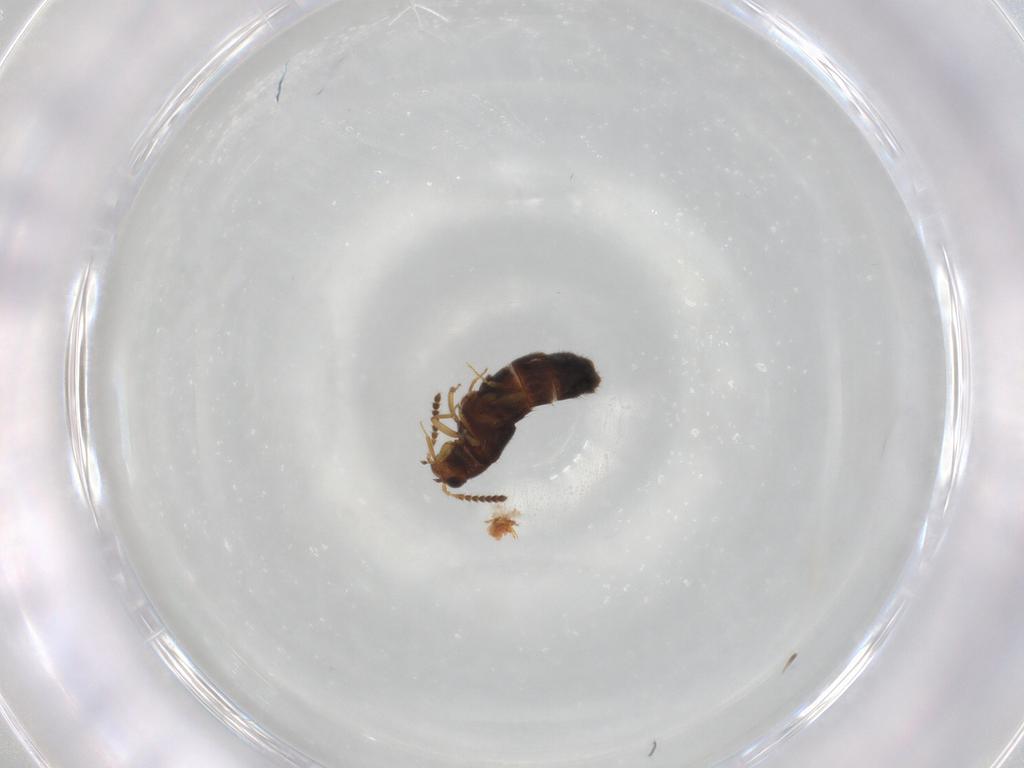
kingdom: Animalia
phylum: Arthropoda
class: Insecta
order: Coleoptera
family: Staphylinidae
